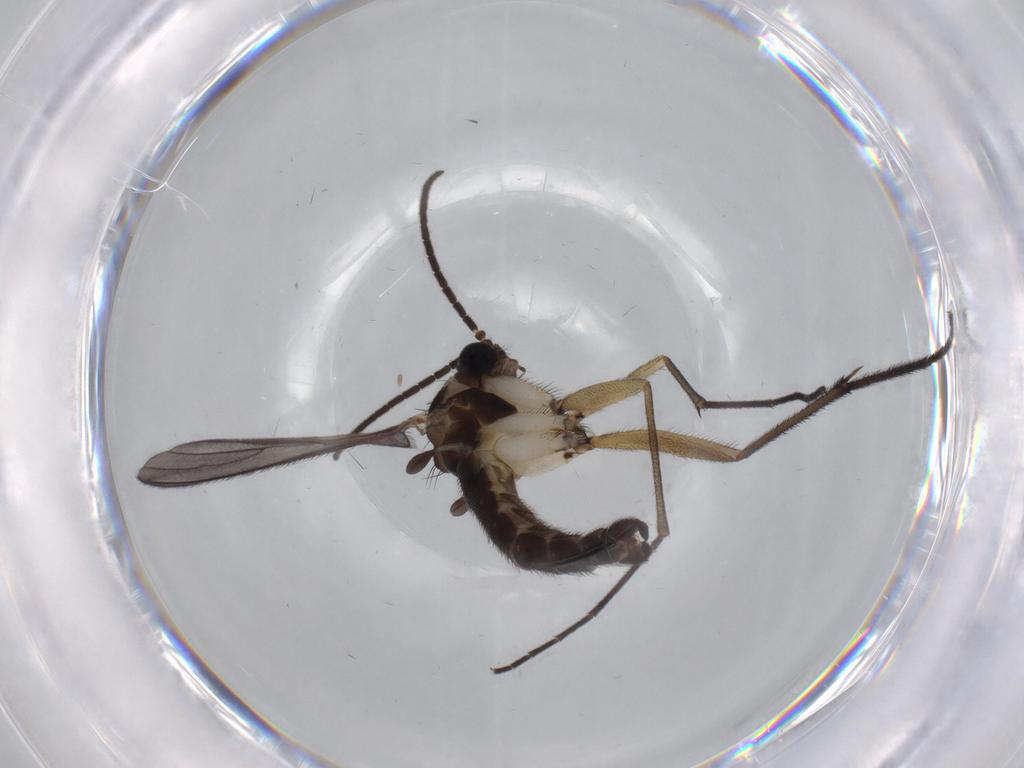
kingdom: Animalia
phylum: Arthropoda
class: Insecta
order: Diptera
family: Sciaridae
